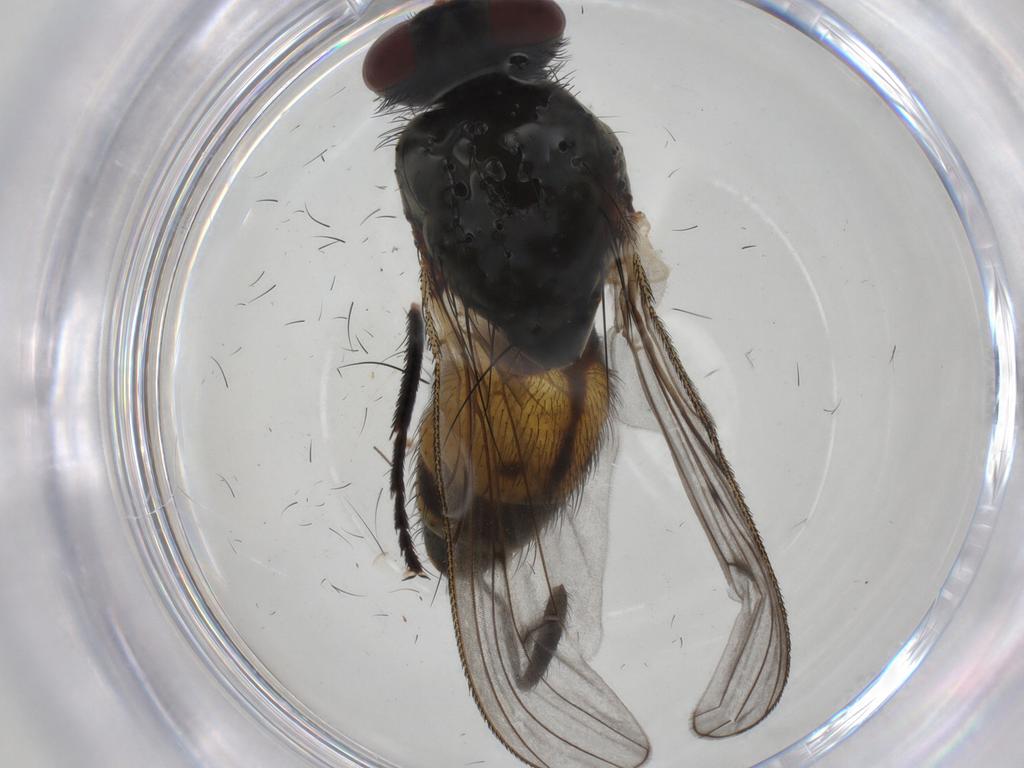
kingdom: Animalia
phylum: Arthropoda
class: Insecta
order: Diptera
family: Muscidae
